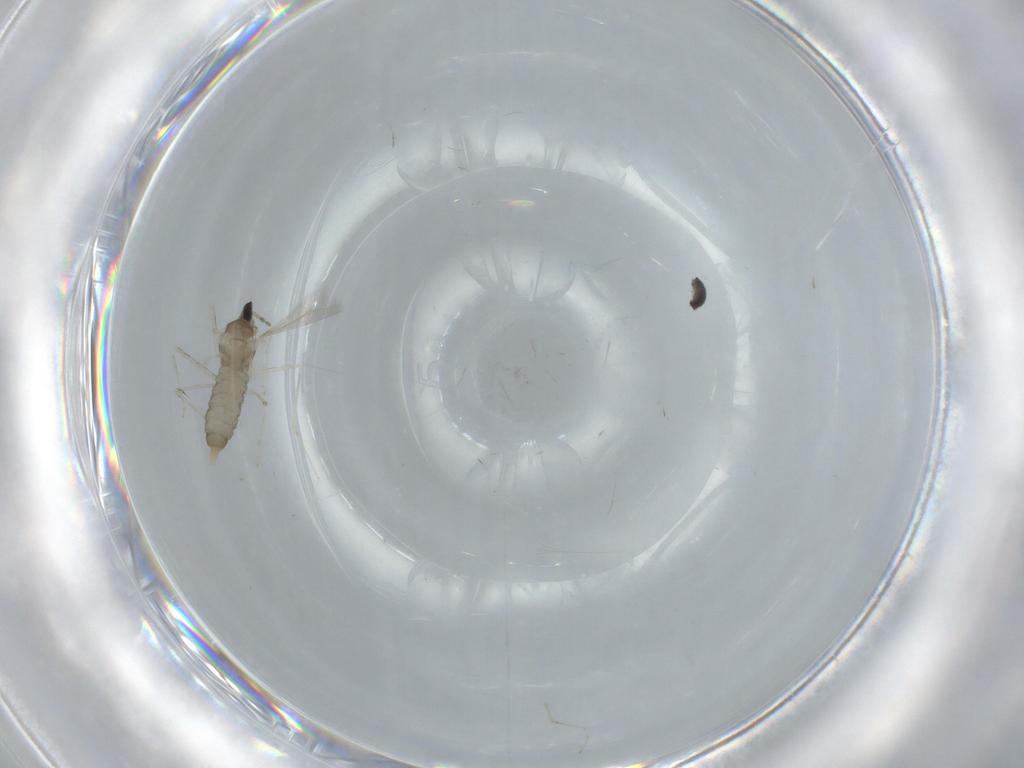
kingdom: Animalia
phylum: Arthropoda
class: Insecta
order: Diptera
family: Cecidomyiidae
